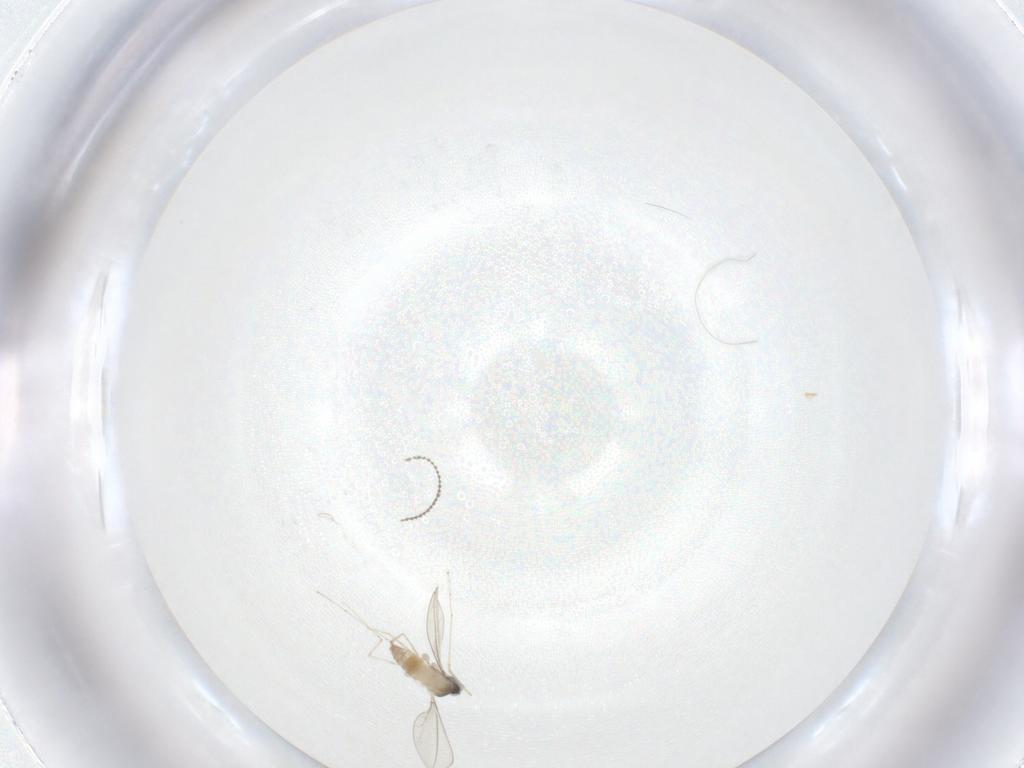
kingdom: Animalia
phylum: Arthropoda
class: Insecta
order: Diptera
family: Cecidomyiidae
